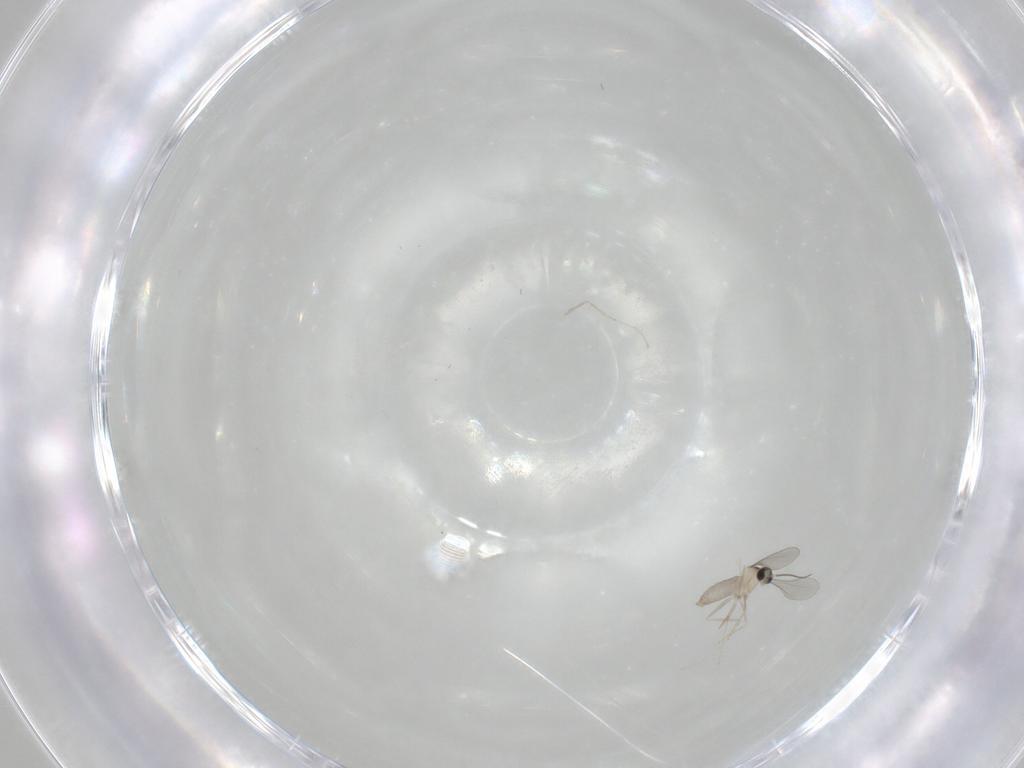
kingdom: Animalia
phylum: Arthropoda
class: Insecta
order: Diptera
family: Cecidomyiidae
